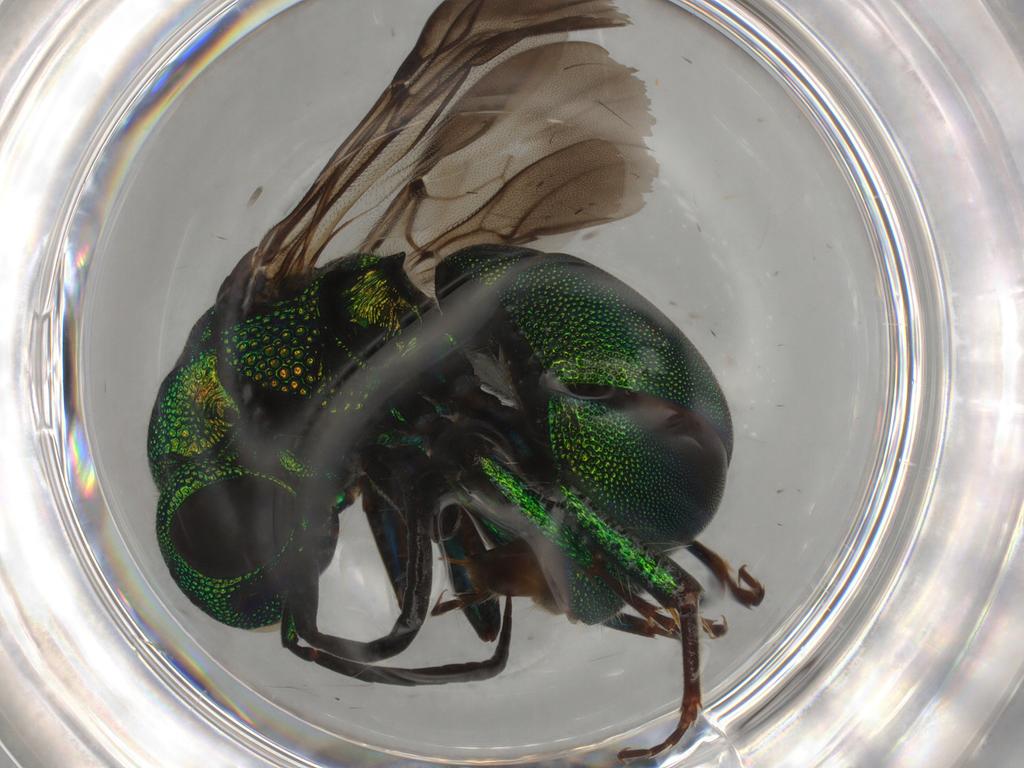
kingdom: Animalia
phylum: Arthropoda
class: Insecta
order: Hymenoptera
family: Chrysididae
